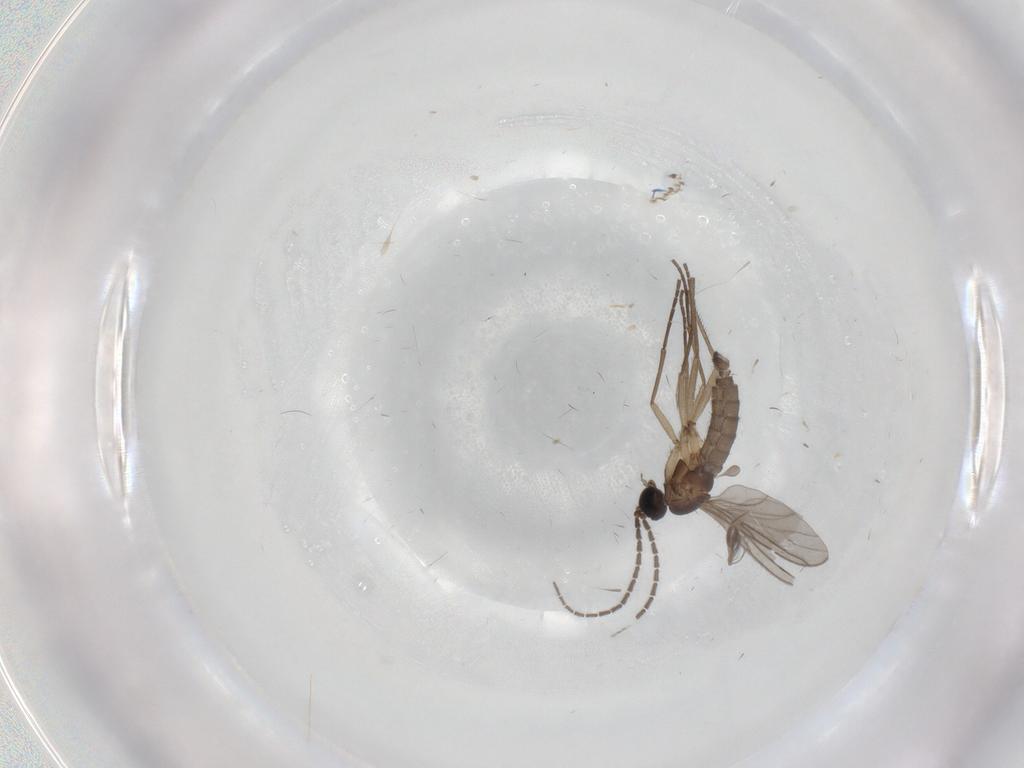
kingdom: Animalia
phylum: Arthropoda
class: Insecta
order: Diptera
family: Ceratopogonidae
